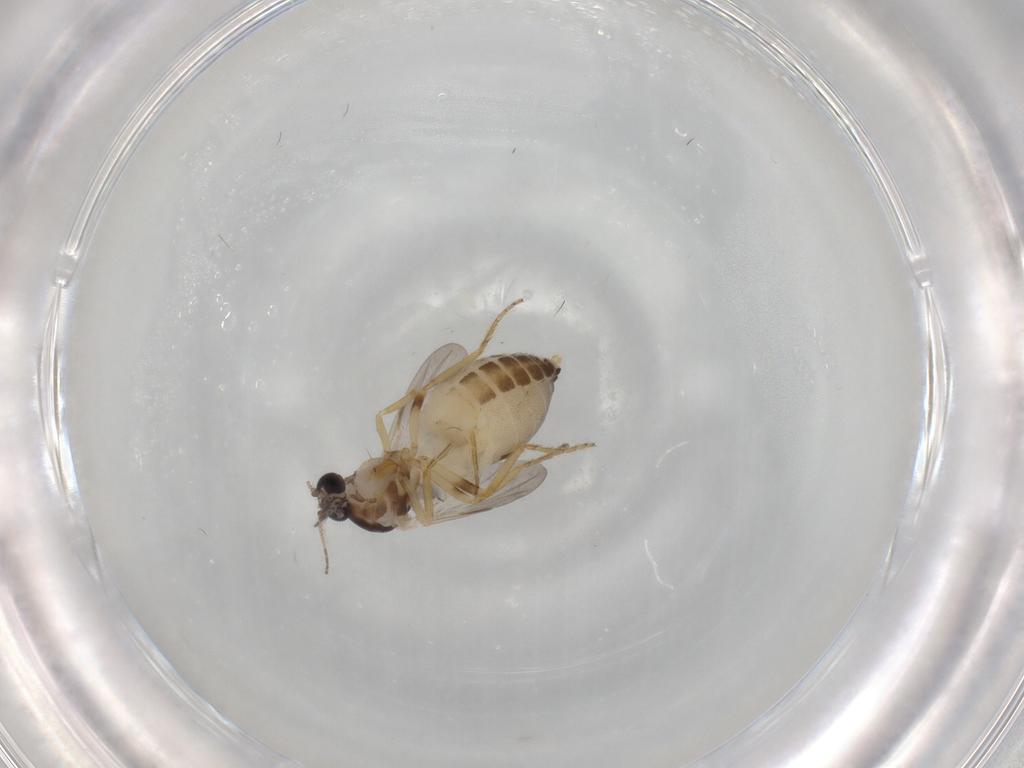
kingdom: Animalia
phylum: Arthropoda
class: Insecta
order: Diptera
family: Ceratopogonidae
